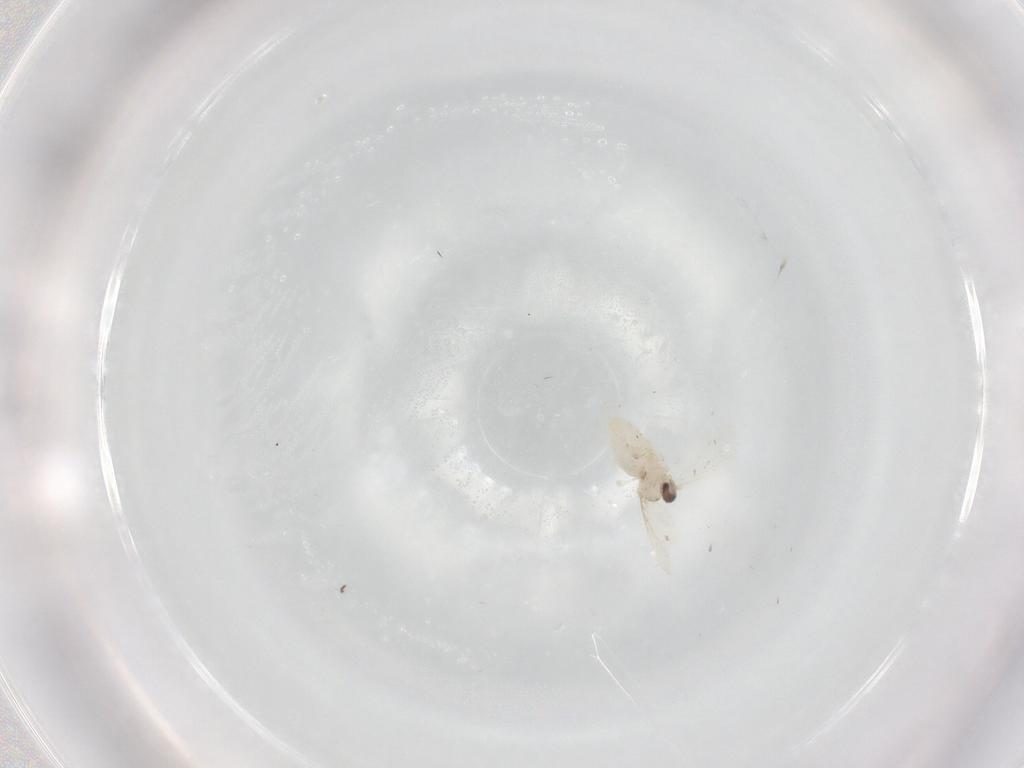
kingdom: Animalia
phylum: Arthropoda
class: Insecta
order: Diptera
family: Cecidomyiidae
